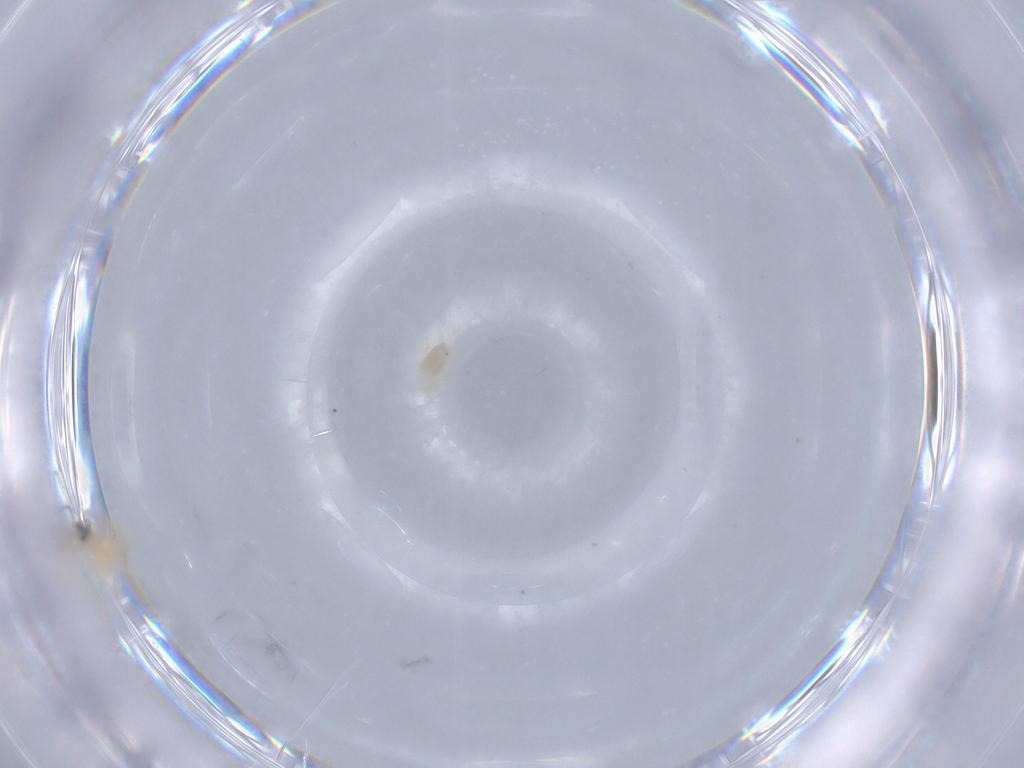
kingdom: Animalia
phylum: Arthropoda
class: Insecta
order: Diptera
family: Cecidomyiidae
